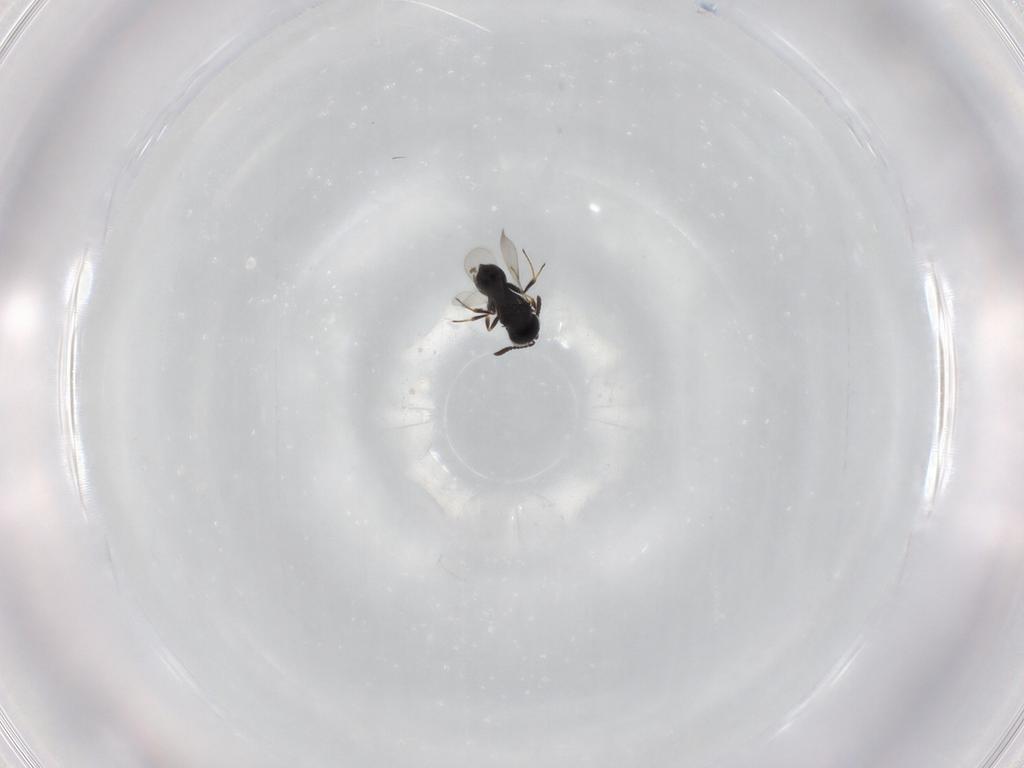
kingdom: Animalia
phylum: Arthropoda
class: Insecta
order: Hymenoptera
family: Scelionidae
